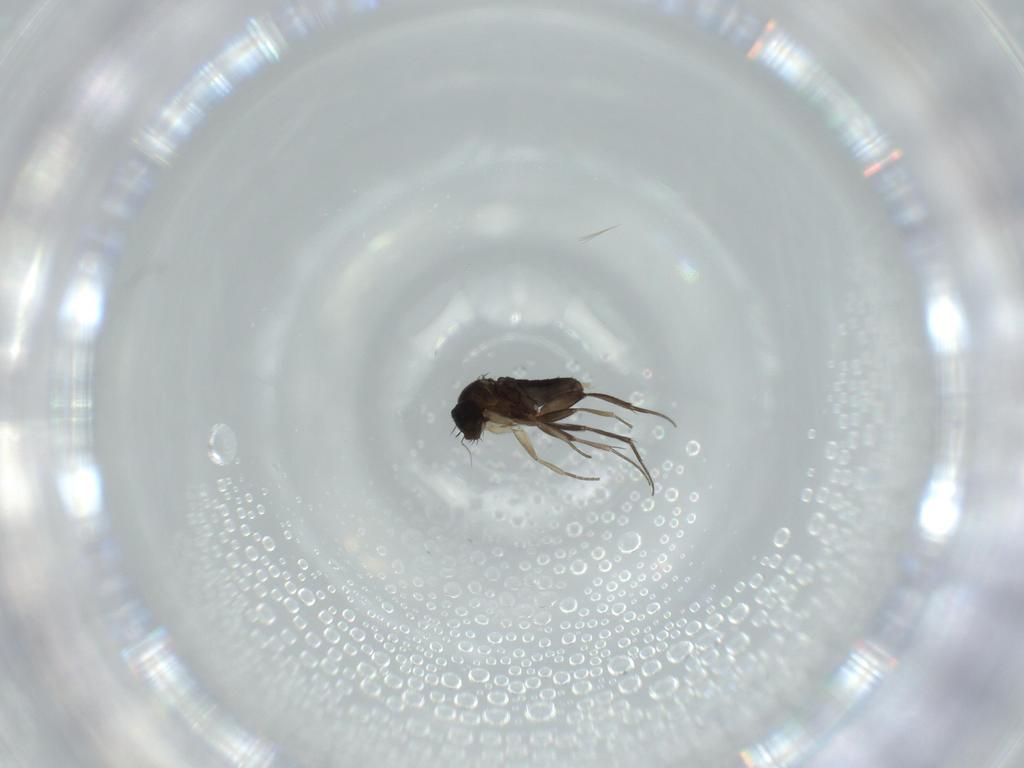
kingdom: Animalia
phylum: Arthropoda
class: Insecta
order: Diptera
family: Phoridae
